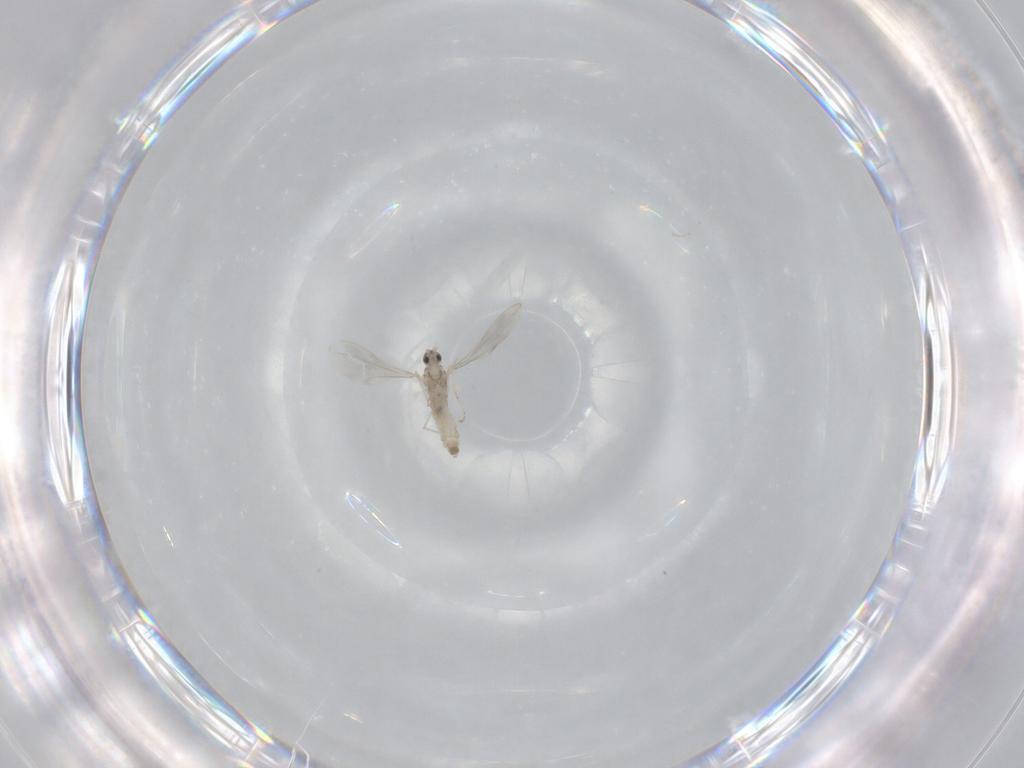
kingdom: Animalia
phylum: Arthropoda
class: Insecta
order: Diptera
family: Cecidomyiidae
